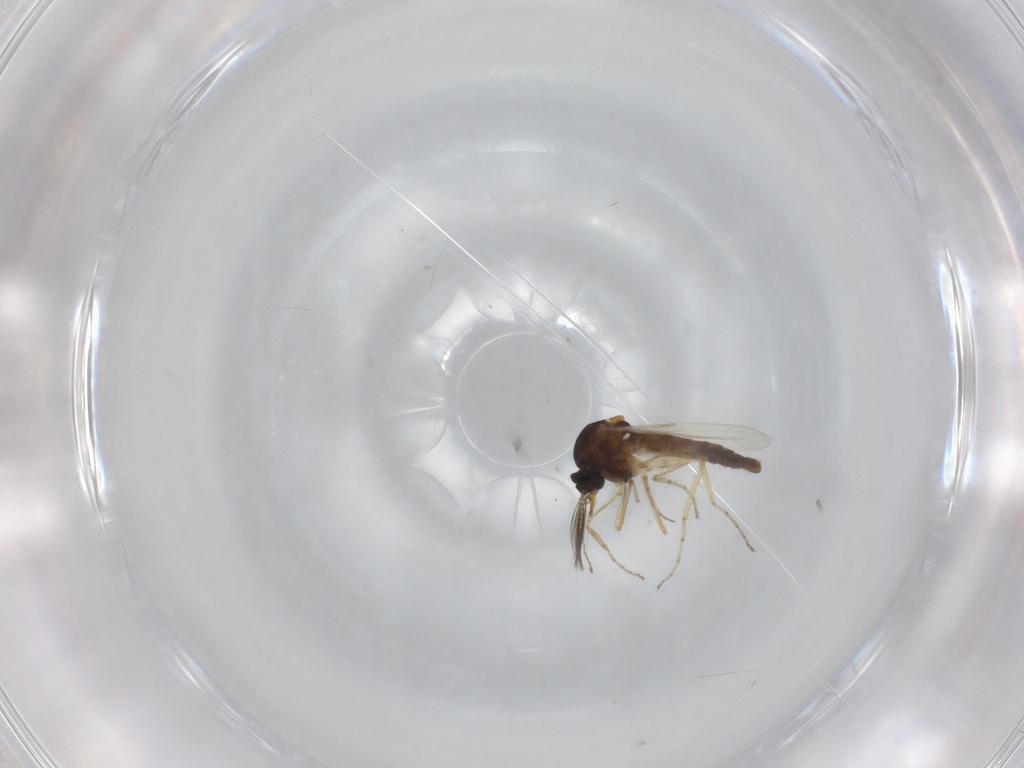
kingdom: Animalia
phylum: Arthropoda
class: Insecta
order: Diptera
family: Ceratopogonidae
